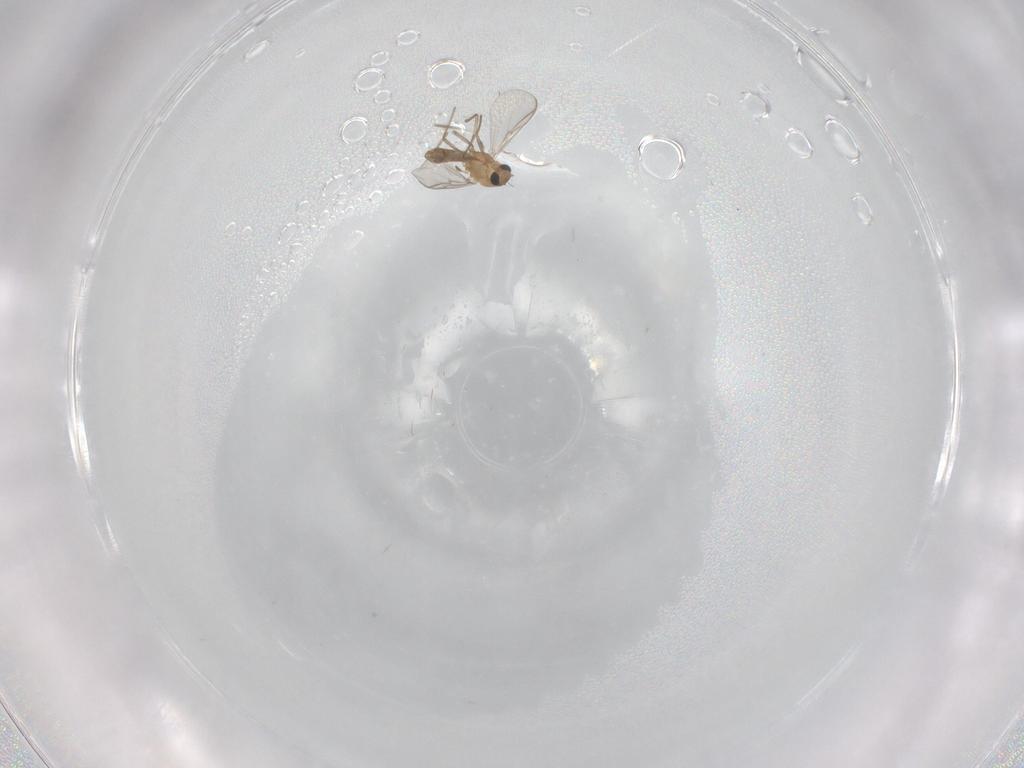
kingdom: Animalia
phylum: Arthropoda
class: Insecta
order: Diptera
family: Chironomidae
